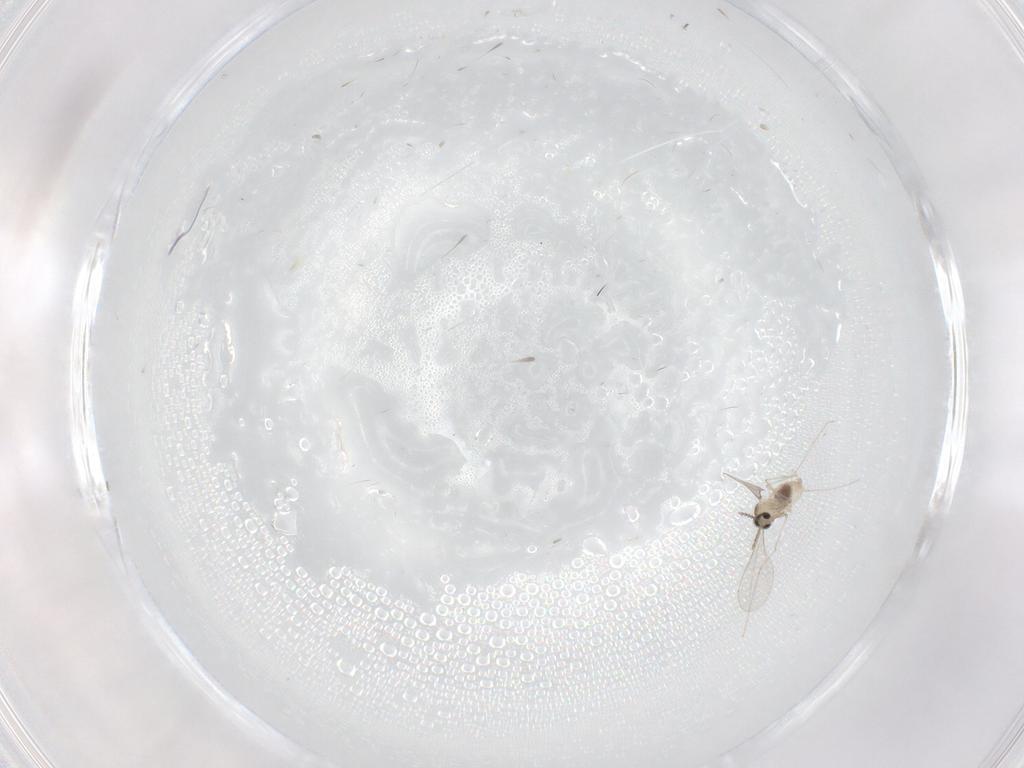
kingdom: Animalia
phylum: Arthropoda
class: Insecta
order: Diptera
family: Cecidomyiidae
